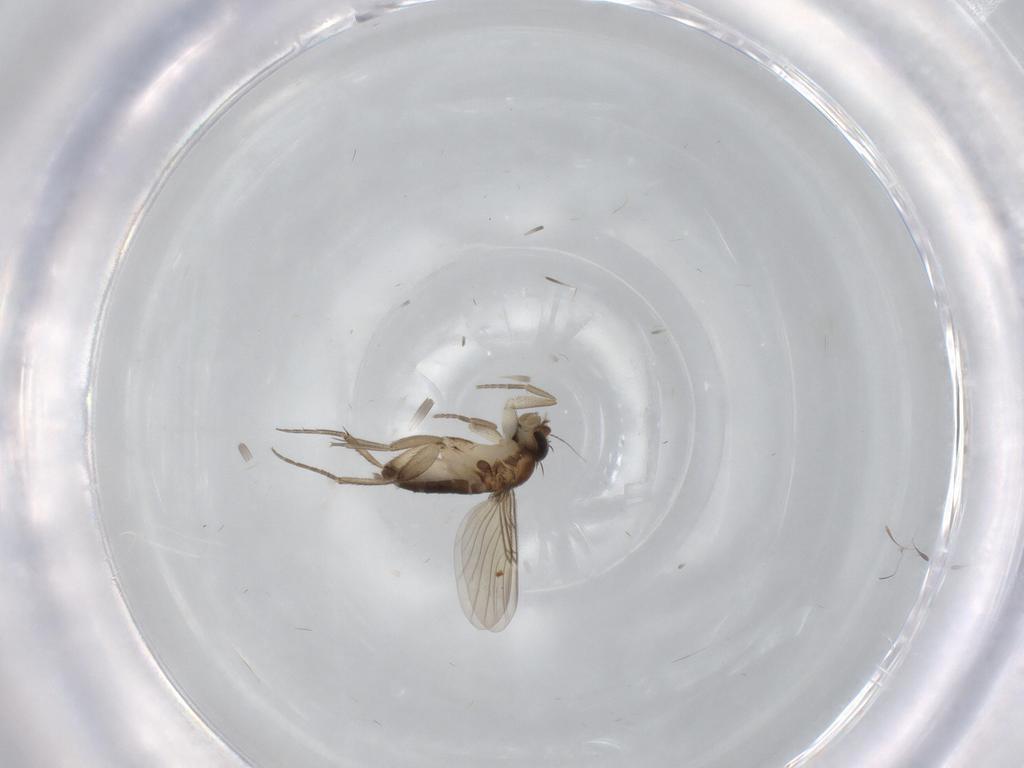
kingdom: Animalia
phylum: Arthropoda
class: Insecta
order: Diptera
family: Phoridae
